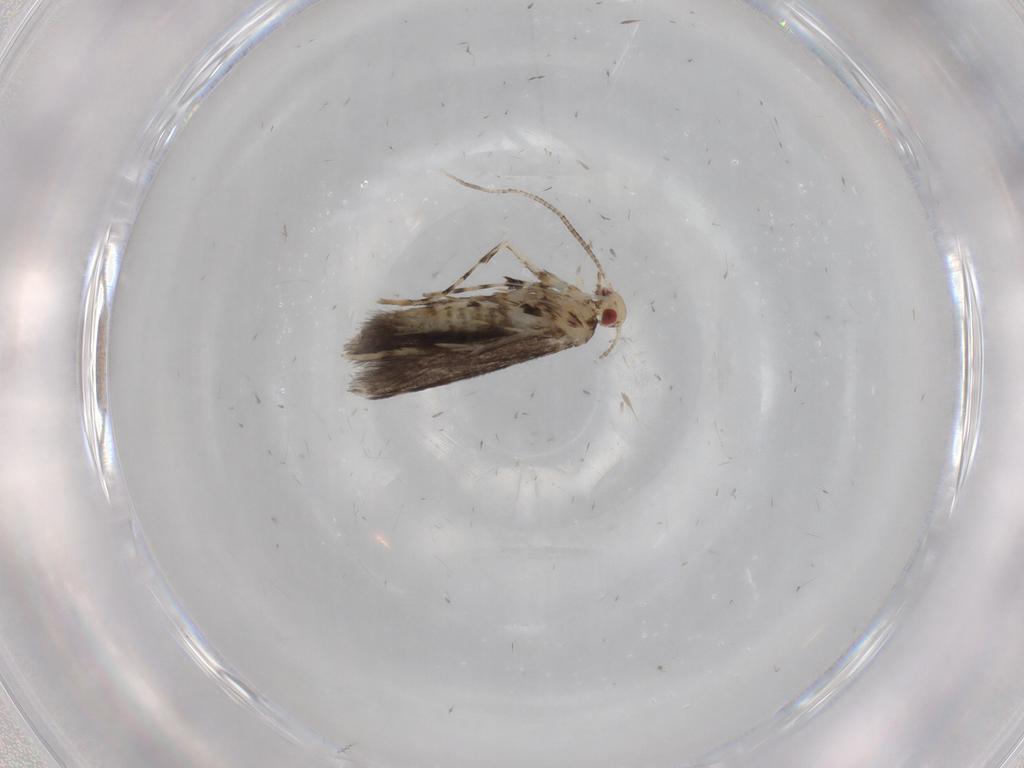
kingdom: Animalia
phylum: Arthropoda
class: Insecta
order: Lepidoptera
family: Gracillariidae
